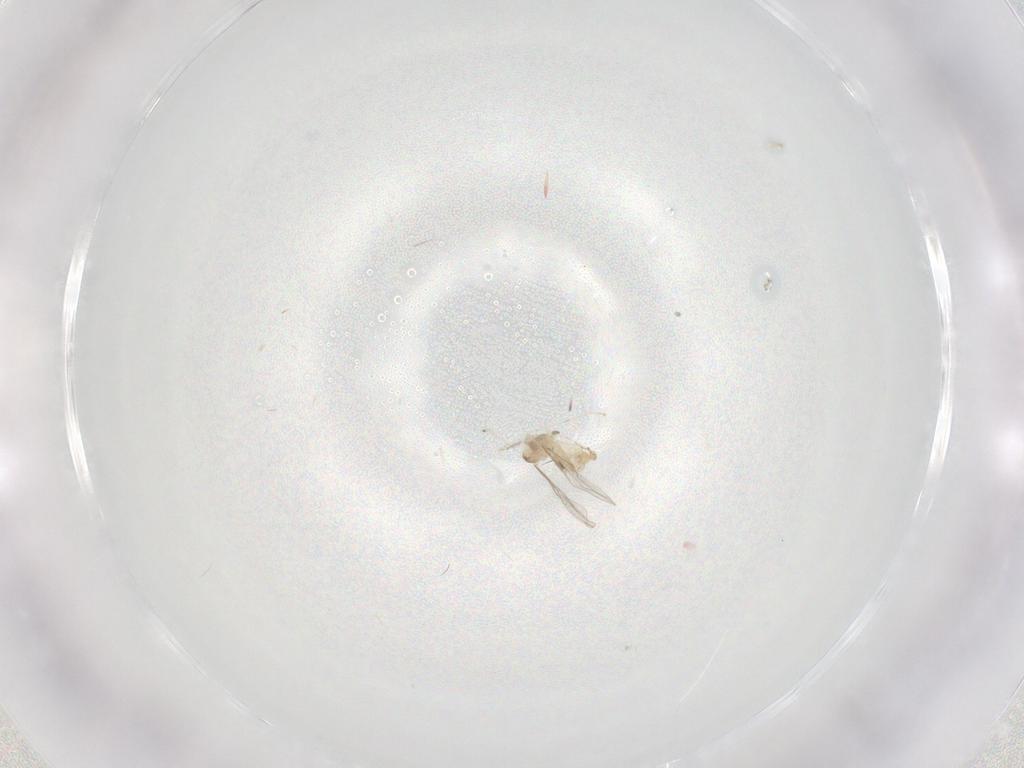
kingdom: Animalia
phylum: Arthropoda
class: Insecta
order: Diptera
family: Cecidomyiidae
